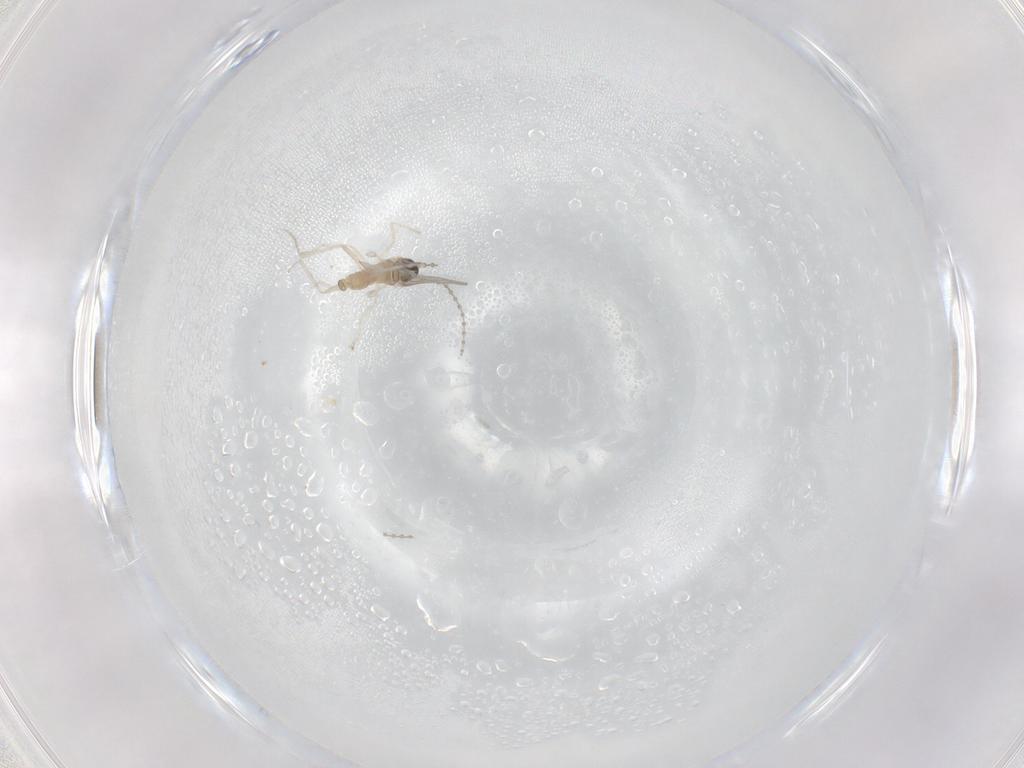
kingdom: Animalia
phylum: Arthropoda
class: Insecta
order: Diptera
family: Cecidomyiidae
